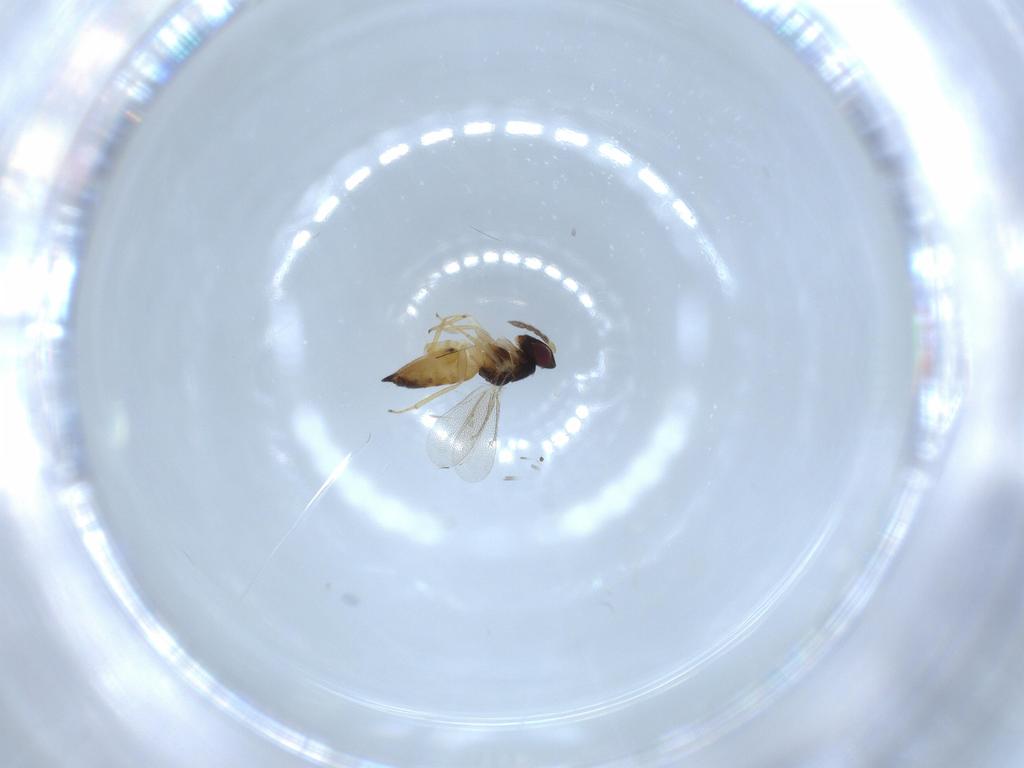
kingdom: Animalia
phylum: Arthropoda
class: Insecta
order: Hymenoptera
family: Eulophidae
